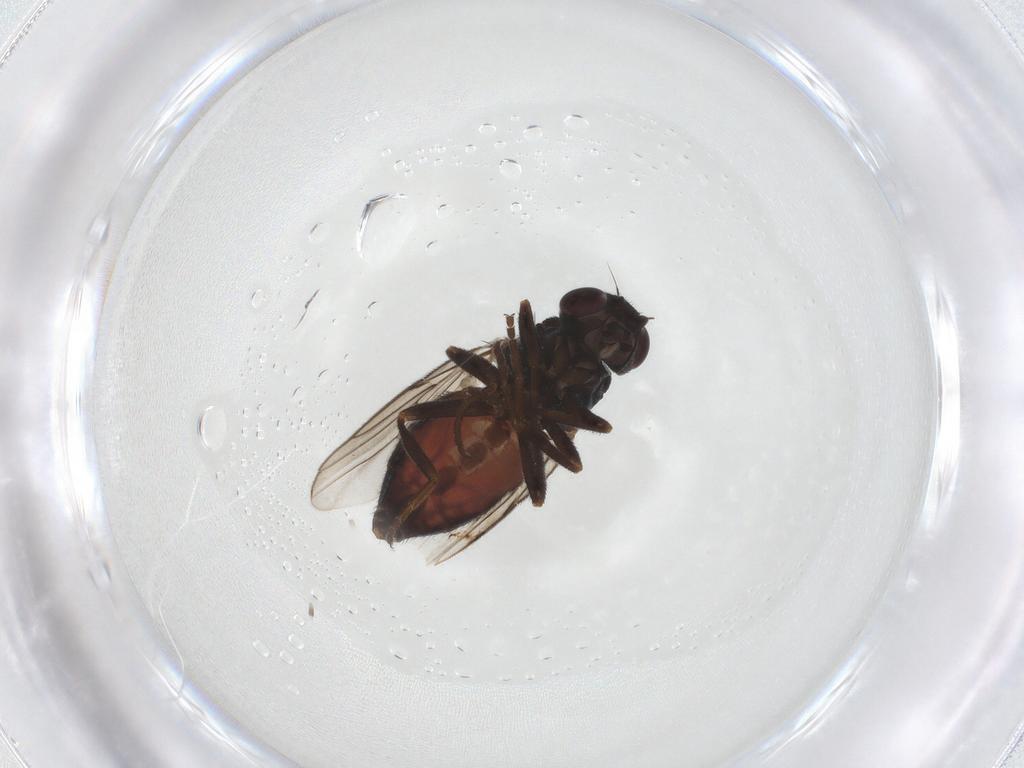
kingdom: Animalia
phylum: Arthropoda
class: Insecta
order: Diptera
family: Chloropidae
